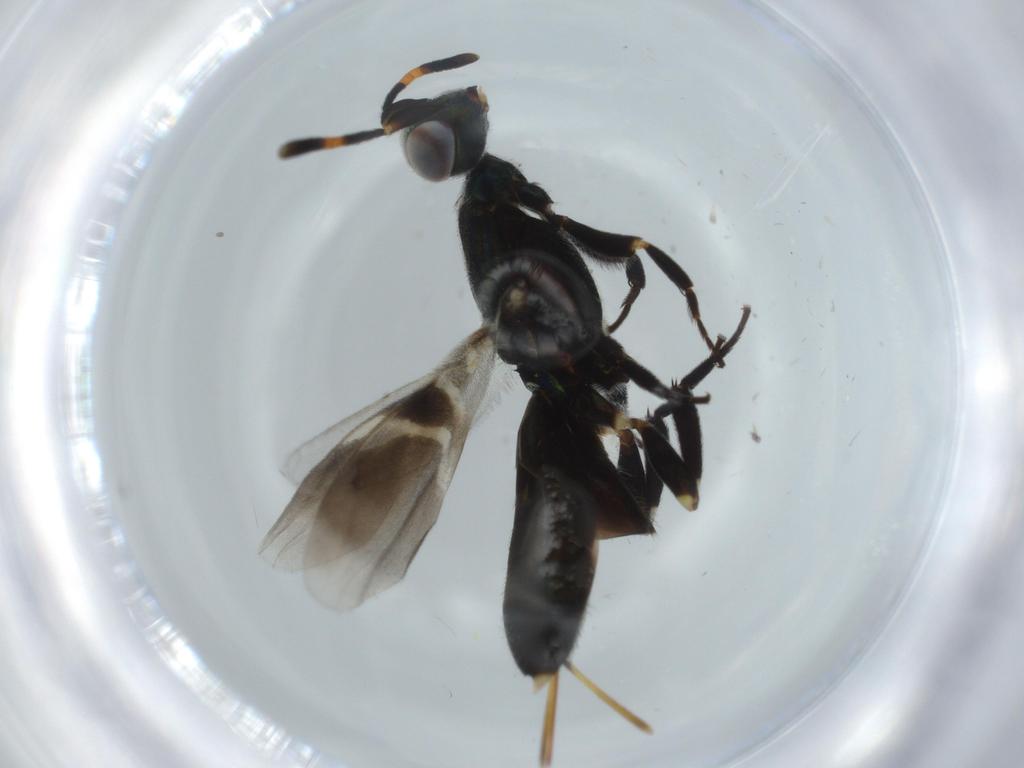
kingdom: Animalia
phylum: Arthropoda
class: Insecta
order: Hymenoptera
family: Eupelmidae
